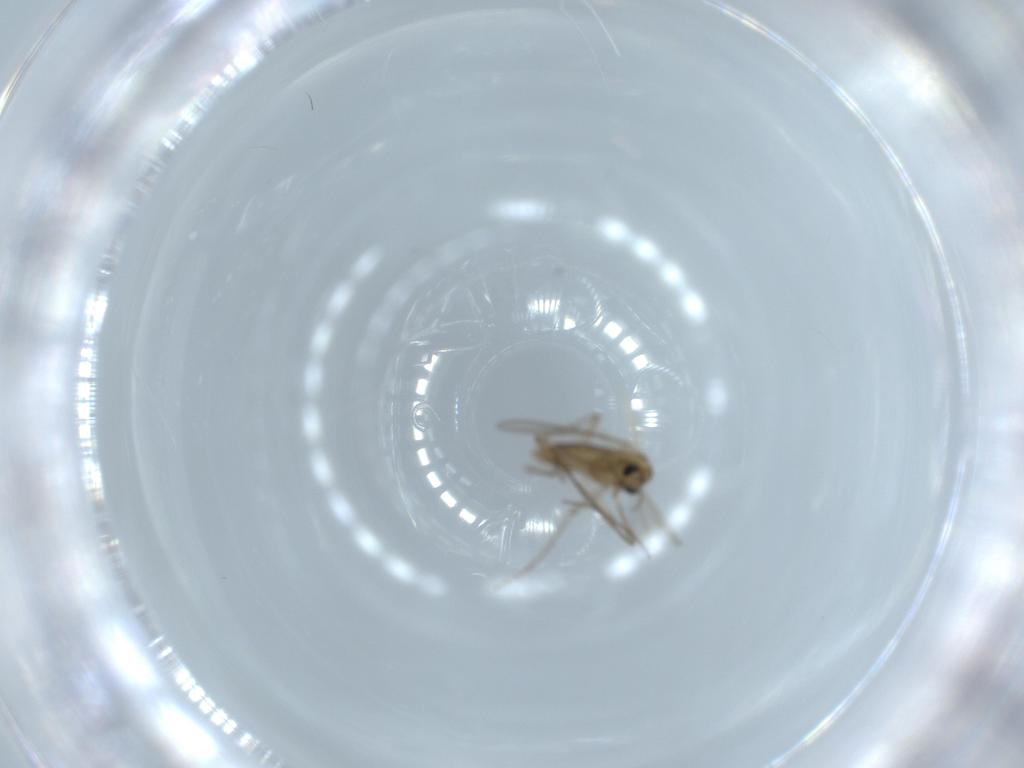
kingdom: Animalia
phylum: Arthropoda
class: Insecta
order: Diptera
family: Chironomidae
